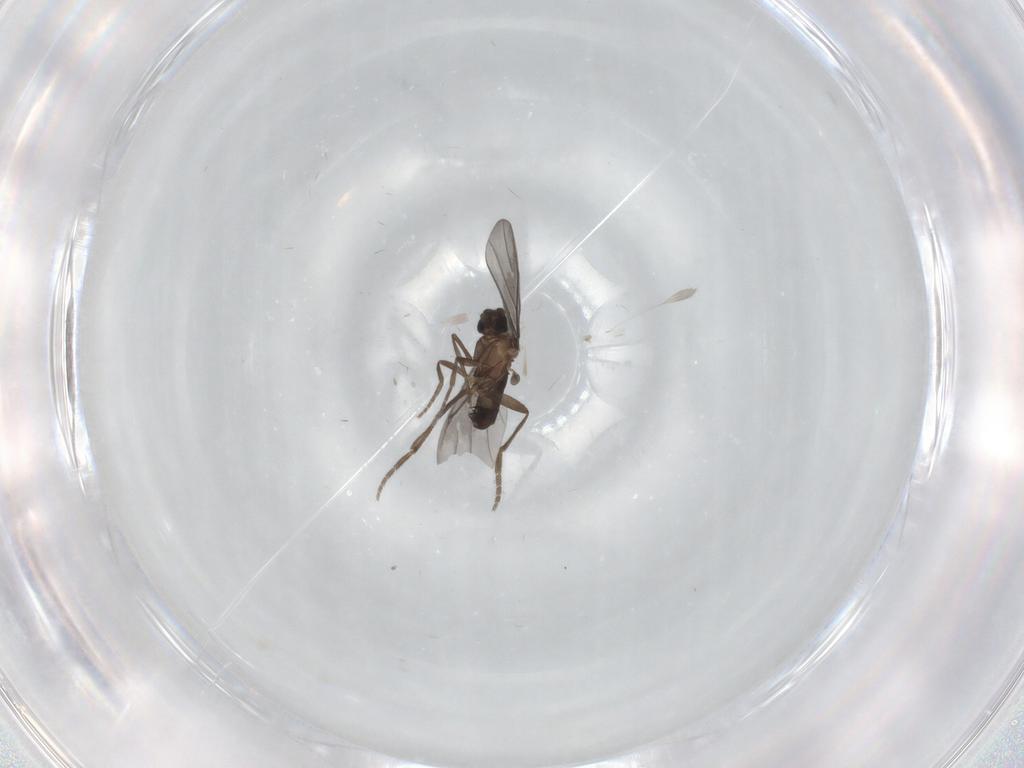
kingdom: Animalia
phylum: Arthropoda
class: Insecta
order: Diptera
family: Phoridae
